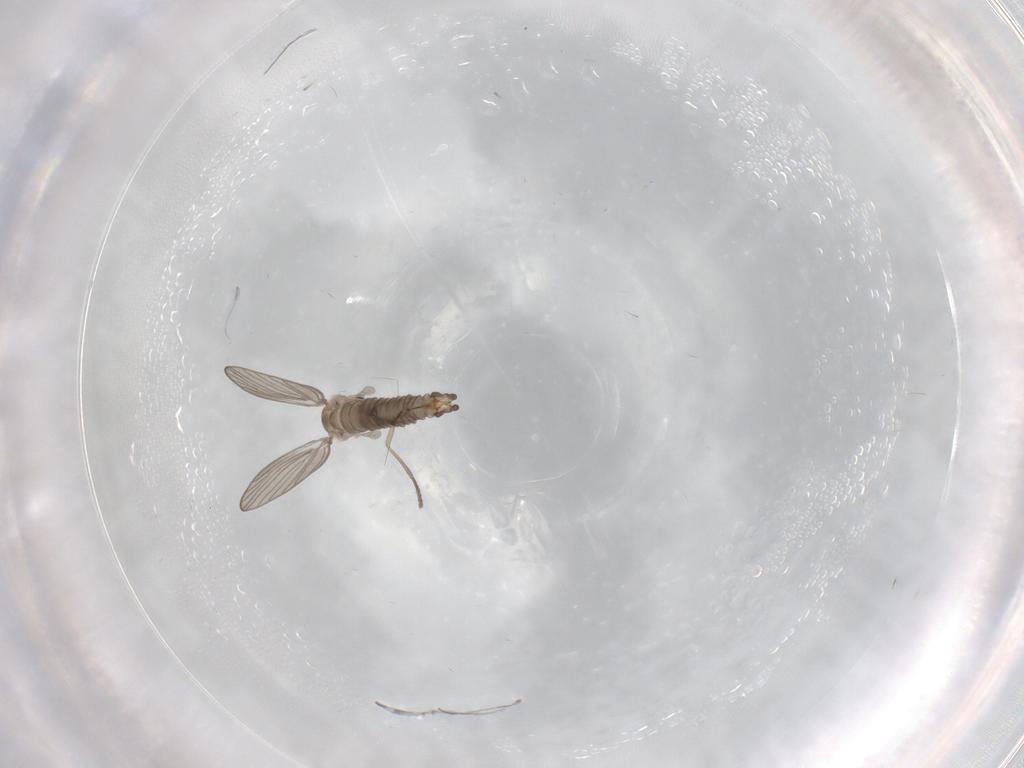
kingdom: Animalia
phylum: Arthropoda
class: Insecta
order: Diptera
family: Psychodidae
